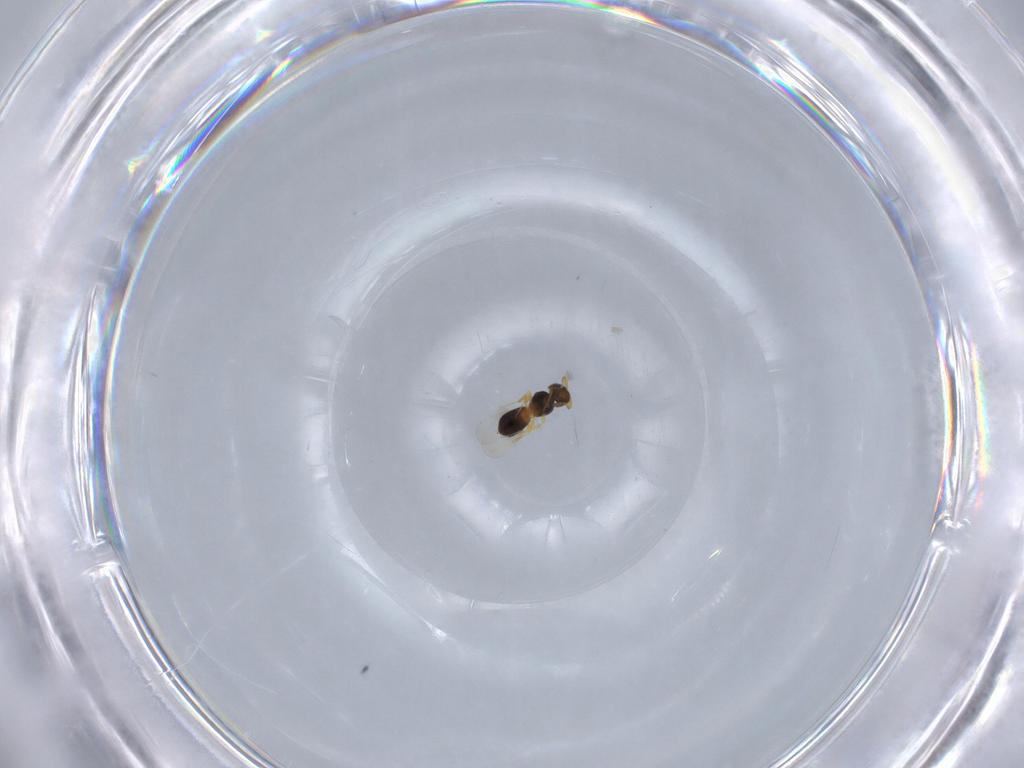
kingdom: Animalia
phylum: Arthropoda
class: Insecta
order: Hymenoptera
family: Platygastridae
